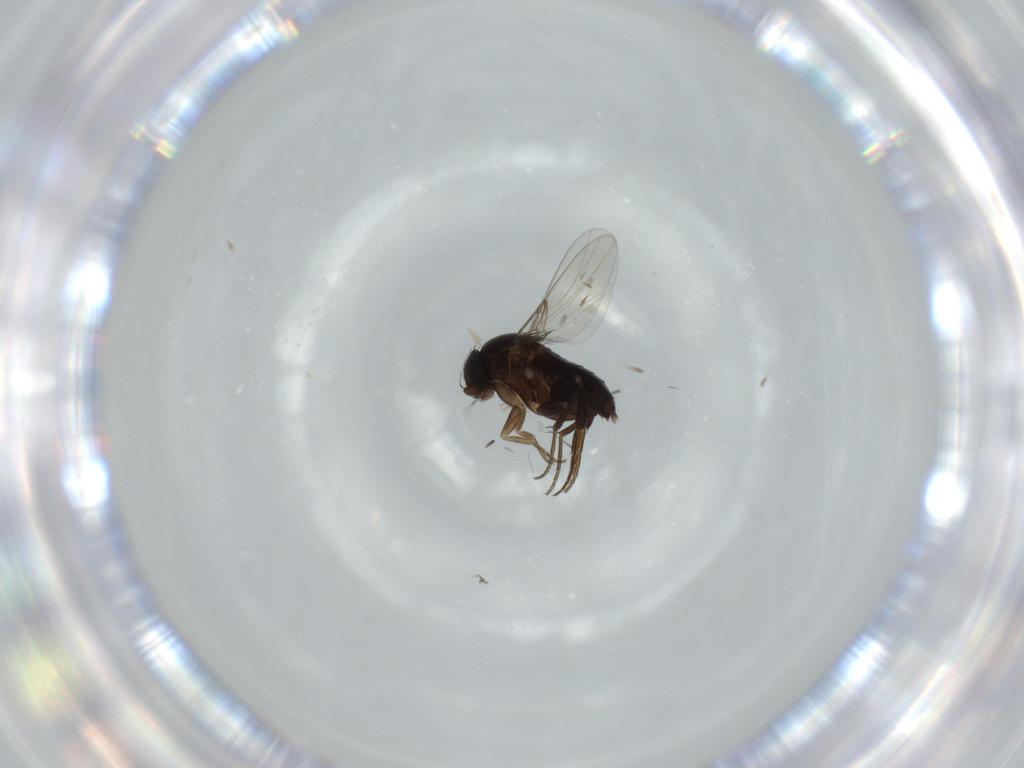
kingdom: Animalia
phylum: Arthropoda
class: Insecta
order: Diptera
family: Phoridae
